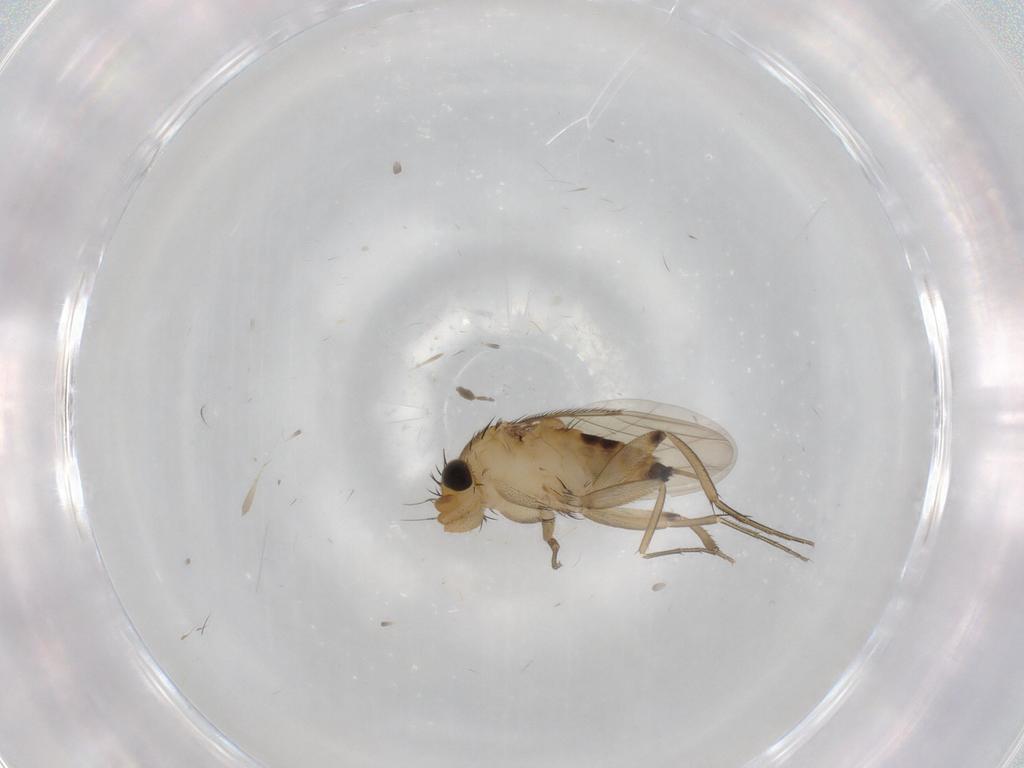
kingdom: Animalia
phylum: Arthropoda
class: Insecta
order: Diptera
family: Phoridae
